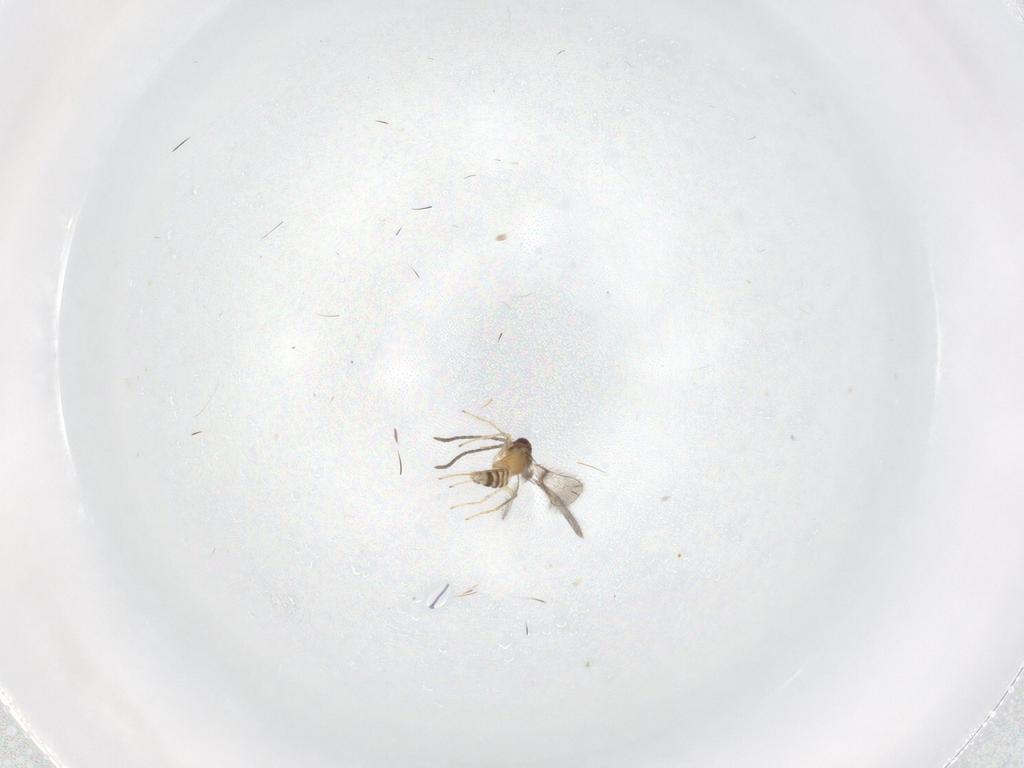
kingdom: Animalia
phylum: Arthropoda
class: Insecta
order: Hymenoptera
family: Mymaridae
